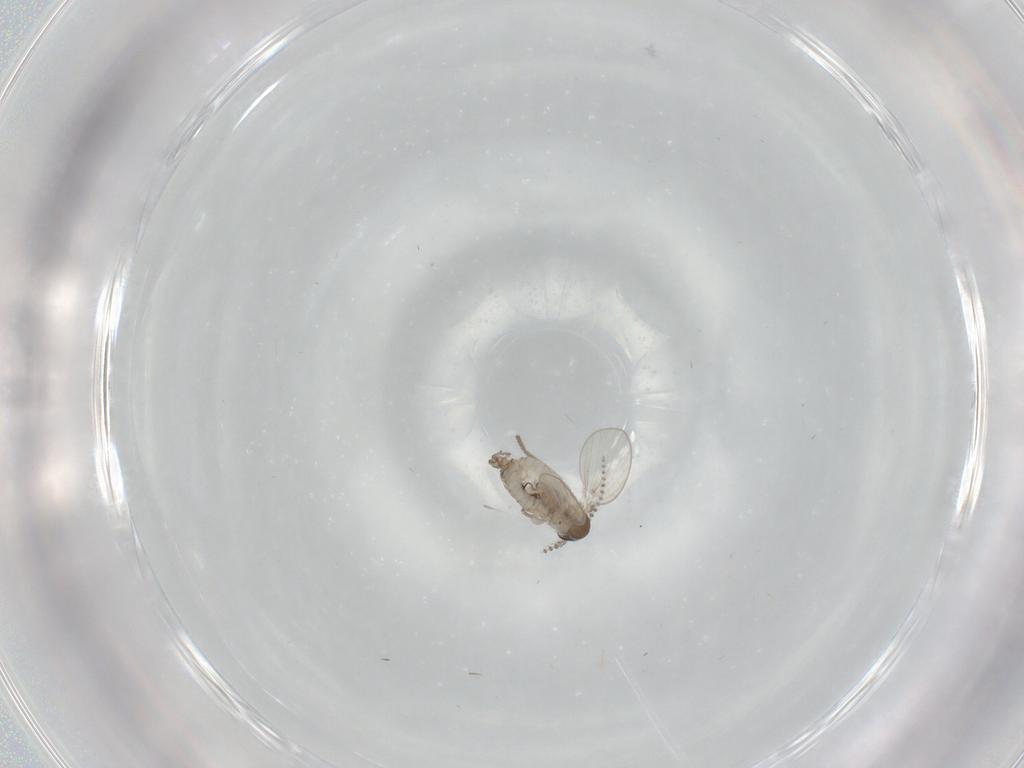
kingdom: Animalia
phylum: Arthropoda
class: Insecta
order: Diptera
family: Psychodidae
